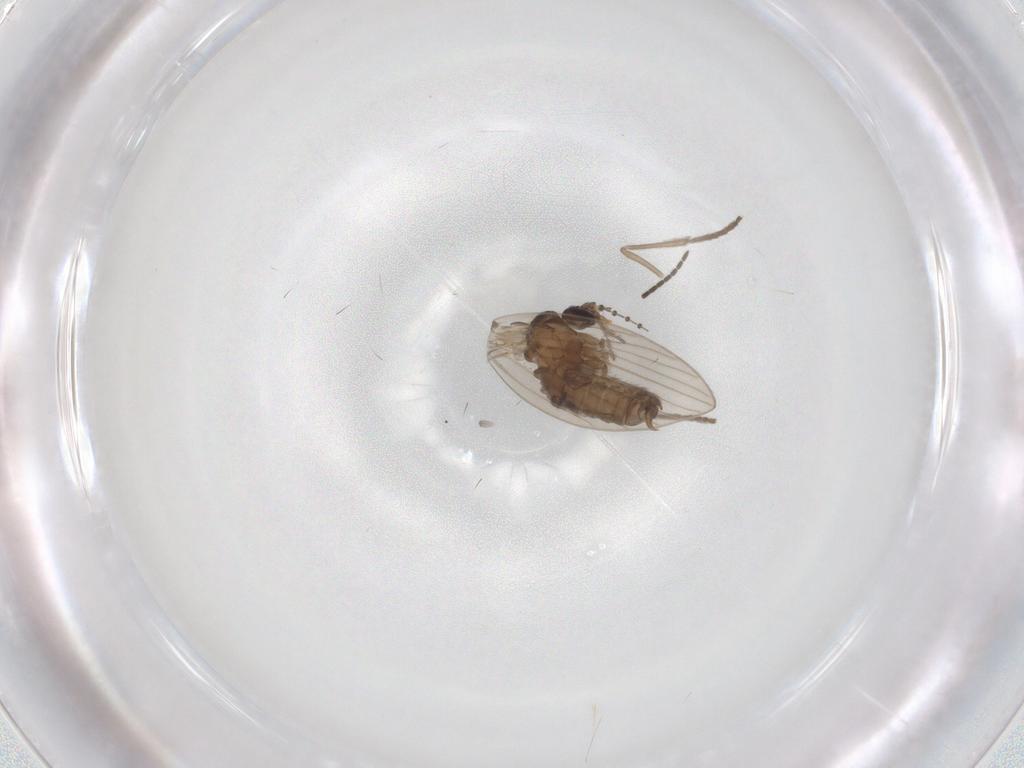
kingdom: Animalia
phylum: Arthropoda
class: Insecta
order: Diptera
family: Psychodidae
